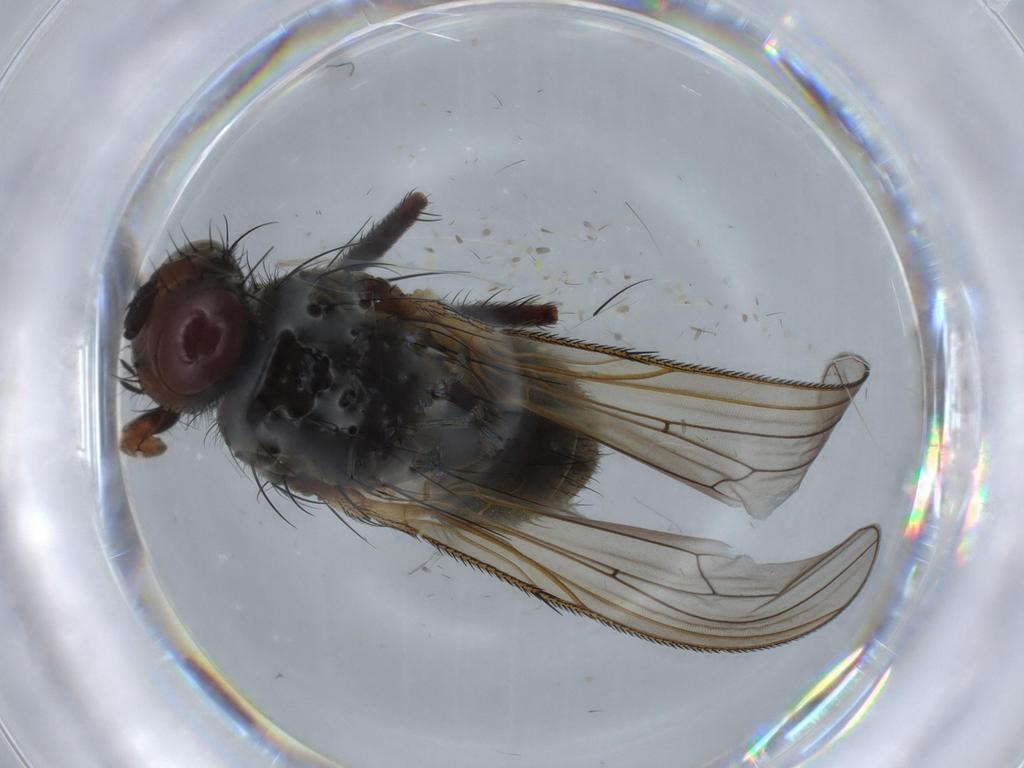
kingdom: Animalia
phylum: Arthropoda
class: Insecta
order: Diptera
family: Anthomyiidae
